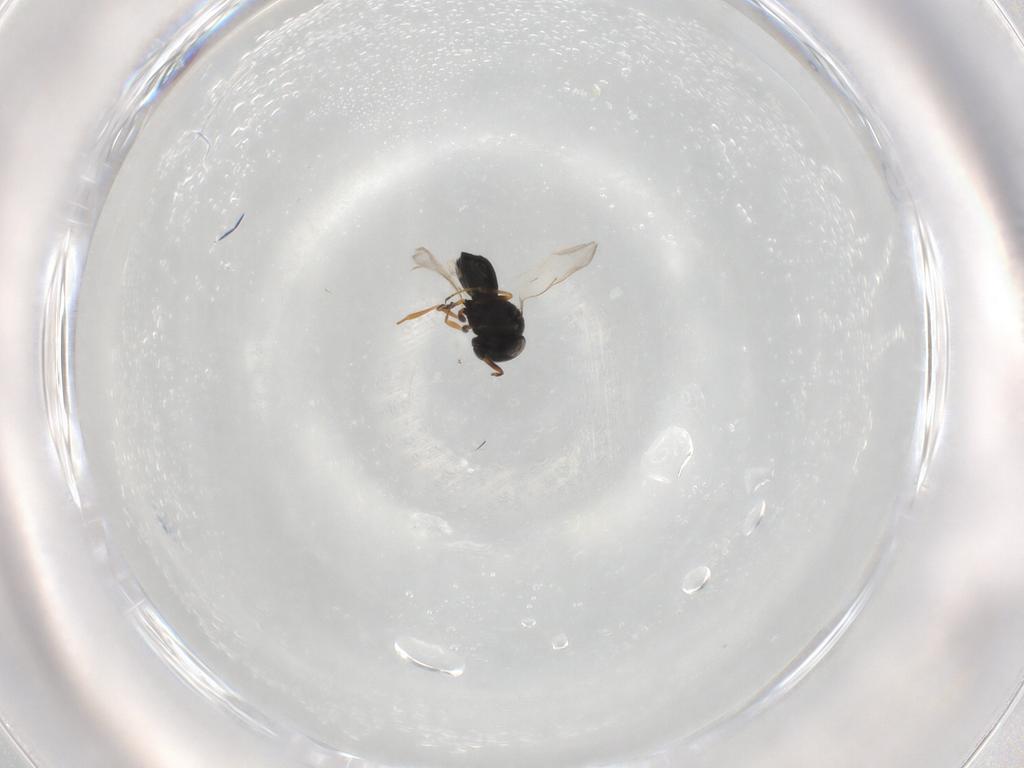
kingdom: Animalia
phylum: Arthropoda
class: Insecta
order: Hymenoptera
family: Scelionidae
